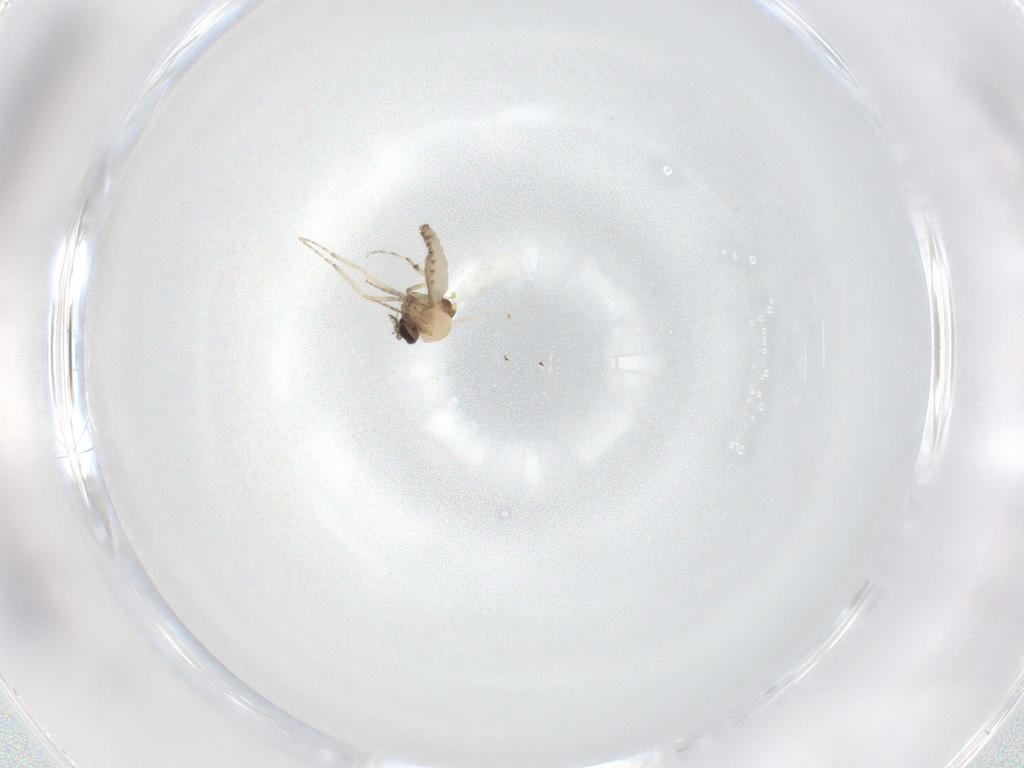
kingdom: Animalia
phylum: Arthropoda
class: Insecta
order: Diptera
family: Ceratopogonidae
